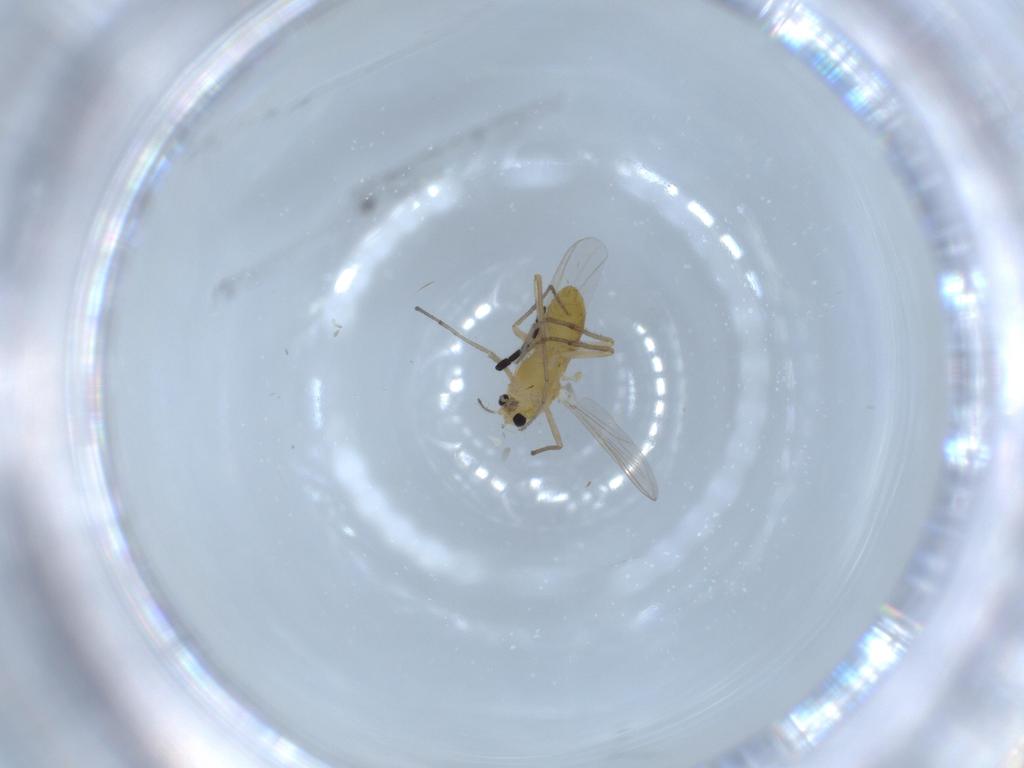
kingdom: Animalia
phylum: Arthropoda
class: Insecta
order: Diptera
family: Chironomidae
